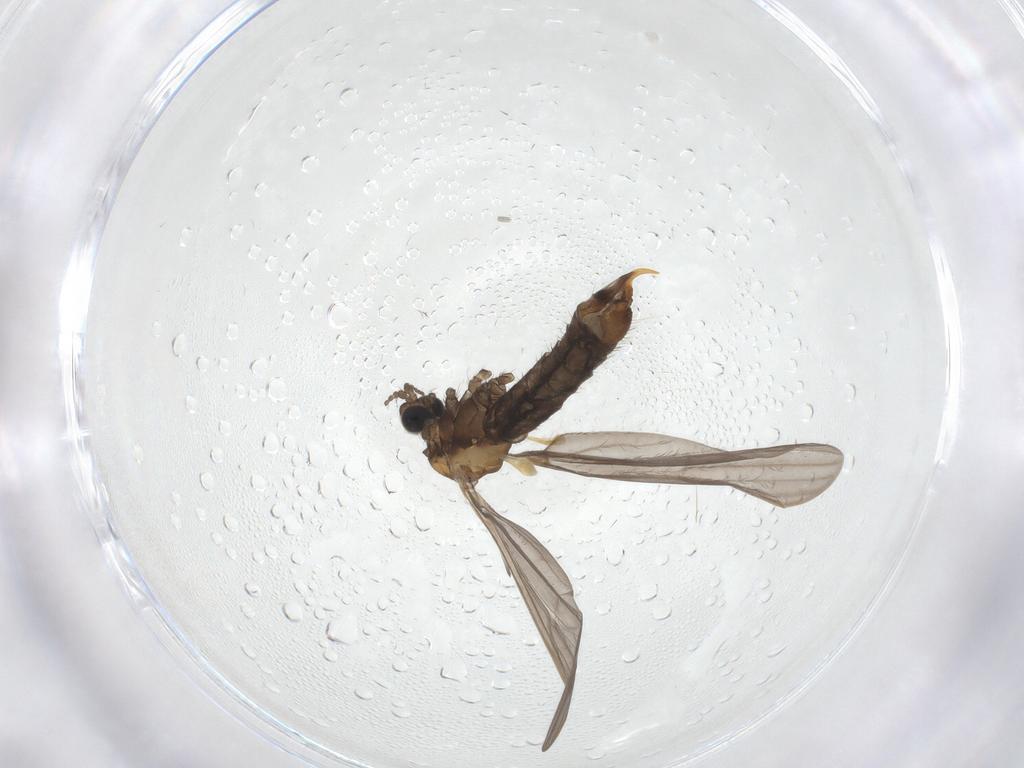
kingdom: Animalia
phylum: Arthropoda
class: Insecta
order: Diptera
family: Limoniidae
